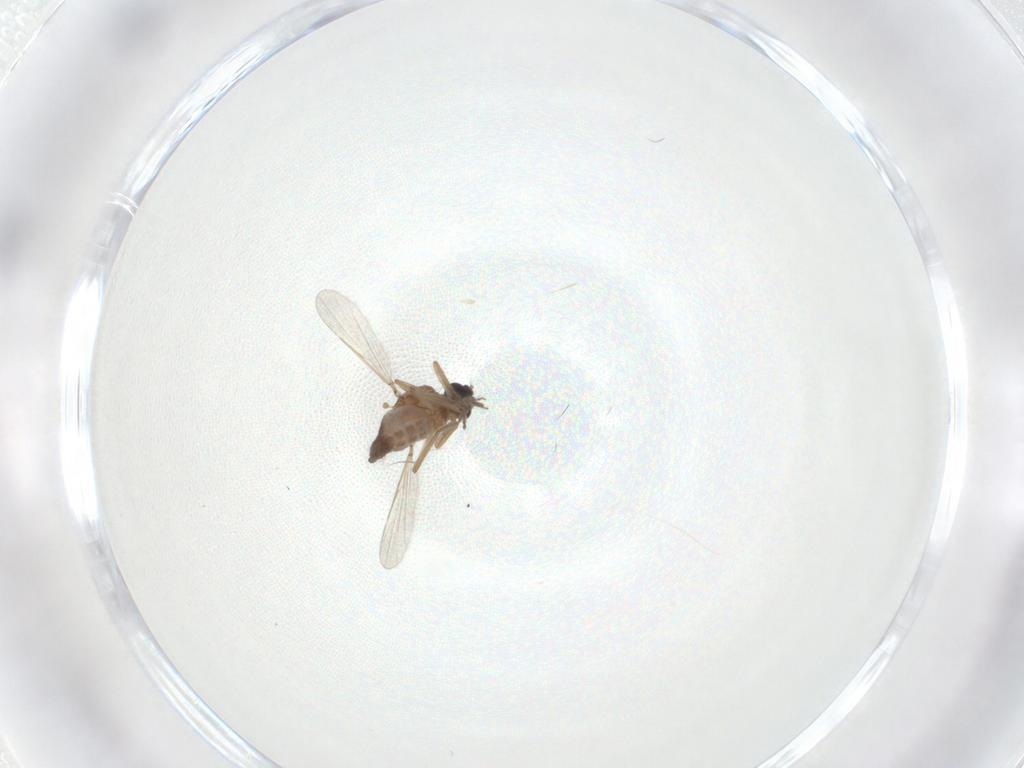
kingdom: Animalia
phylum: Arthropoda
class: Insecta
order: Diptera
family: Ceratopogonidae
